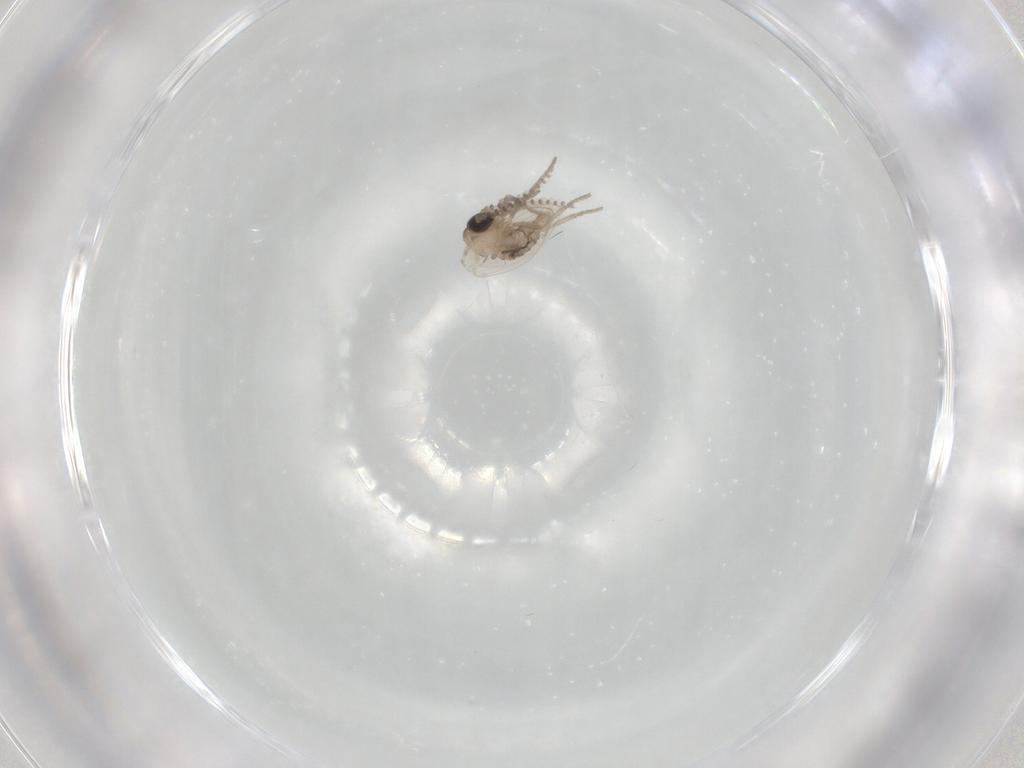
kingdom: Animalia
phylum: Arthropoda
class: Insecta
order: Diptera
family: Psychodidae
